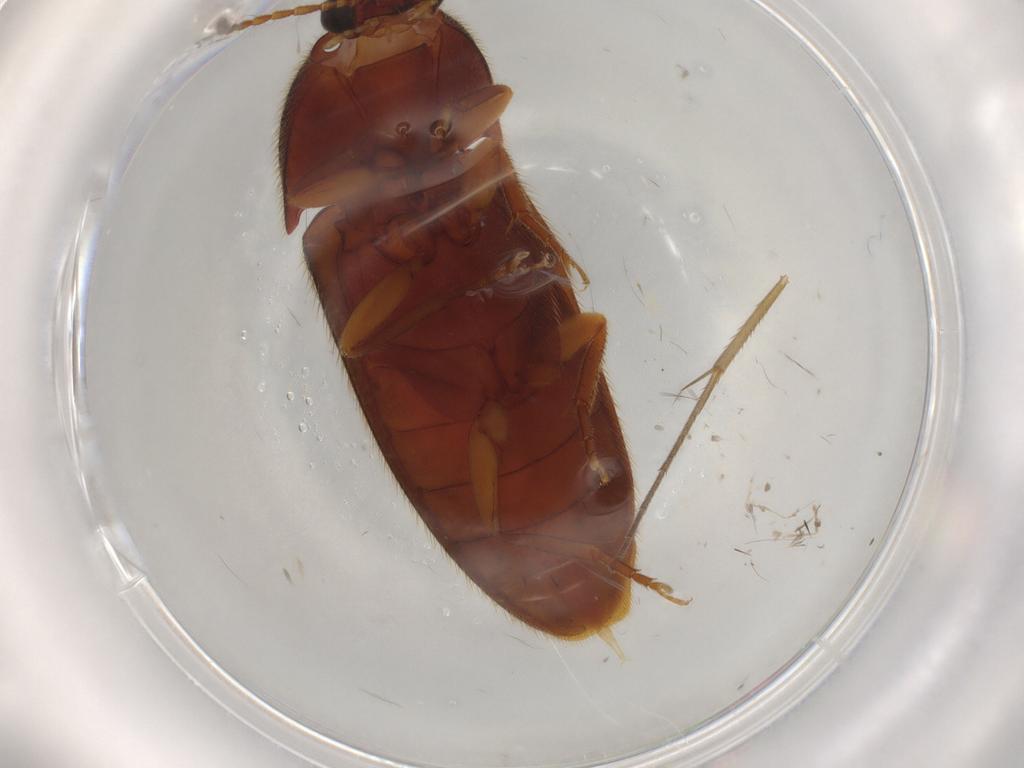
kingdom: Animalia
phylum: Arthropoda
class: Insecta
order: Coleoptera
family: Elateridae
